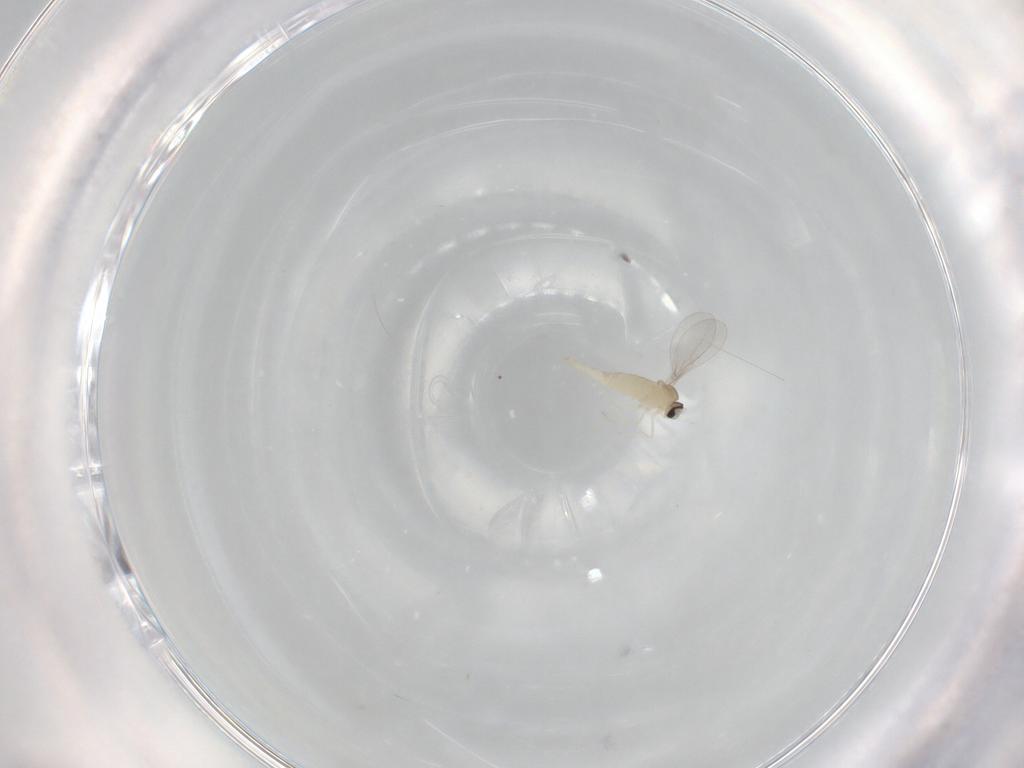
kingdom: Animalia
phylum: Arthropoda
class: Insecta
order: Diptera
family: Cecidomyiidae
